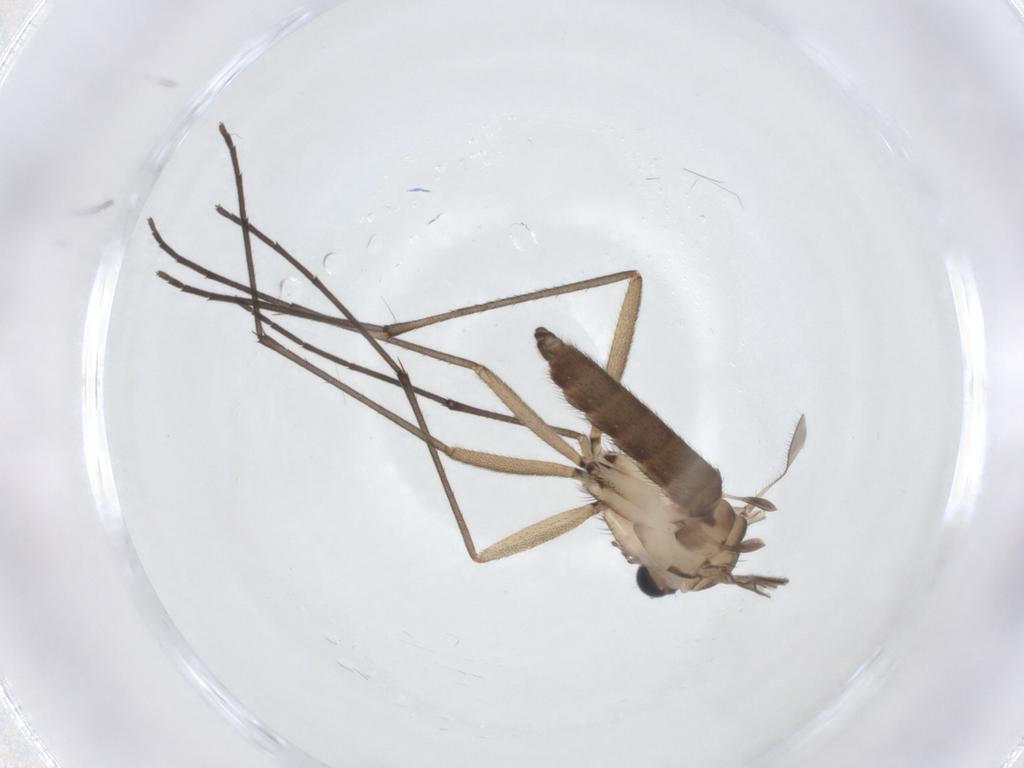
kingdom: Animalia
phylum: Arthropoda
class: Insecta
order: Diptera
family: Sciaridae
